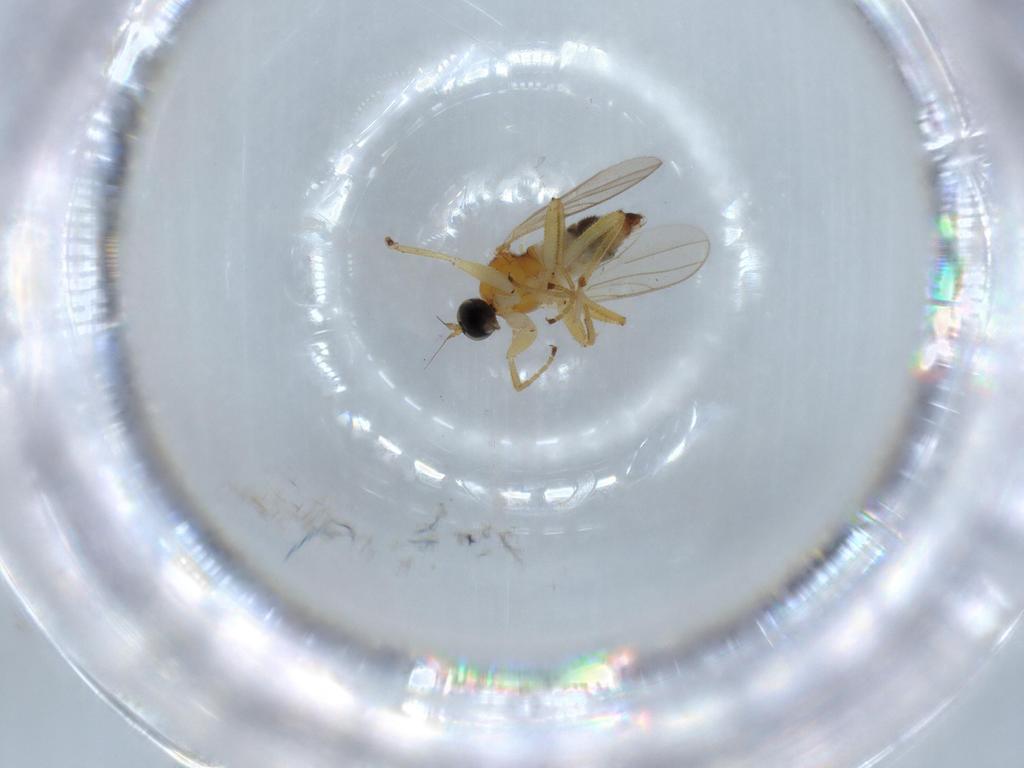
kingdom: Animalia
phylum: Arthropoda
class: Insecta
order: Diptera
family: Hybotidae
